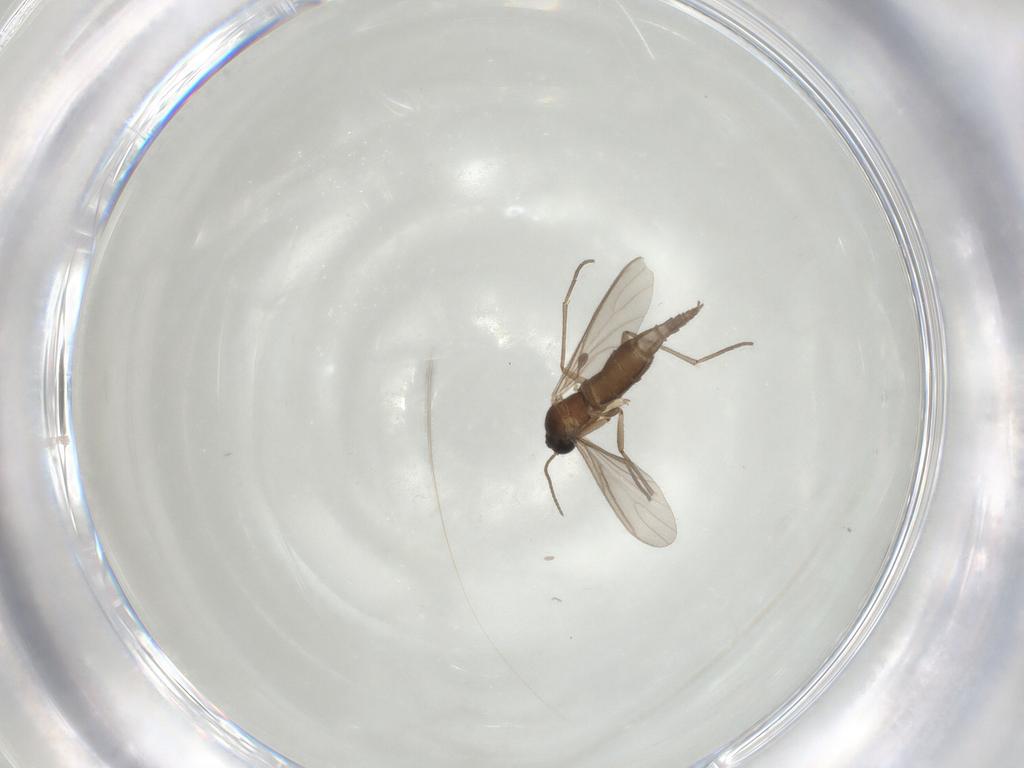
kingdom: Animalia
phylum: Arthropoda
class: Insecta
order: Diptera
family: Sciaridae
